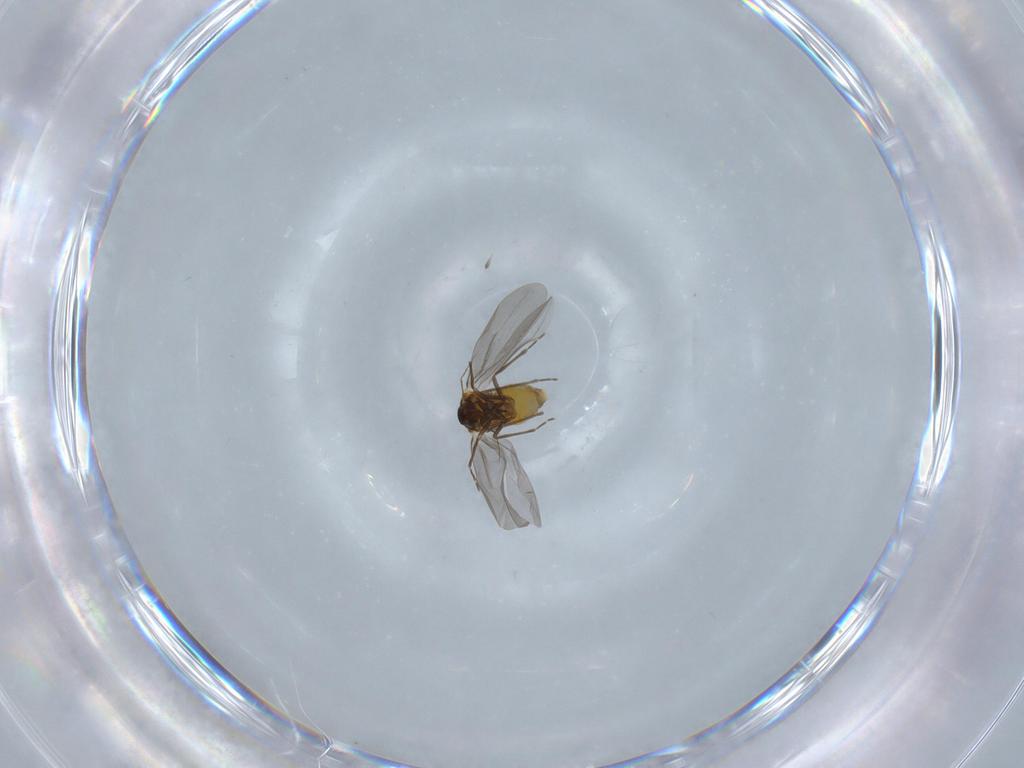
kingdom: Animalia
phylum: Arthropoda
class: Insecta
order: Hemiptera
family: Aleyrodidae
